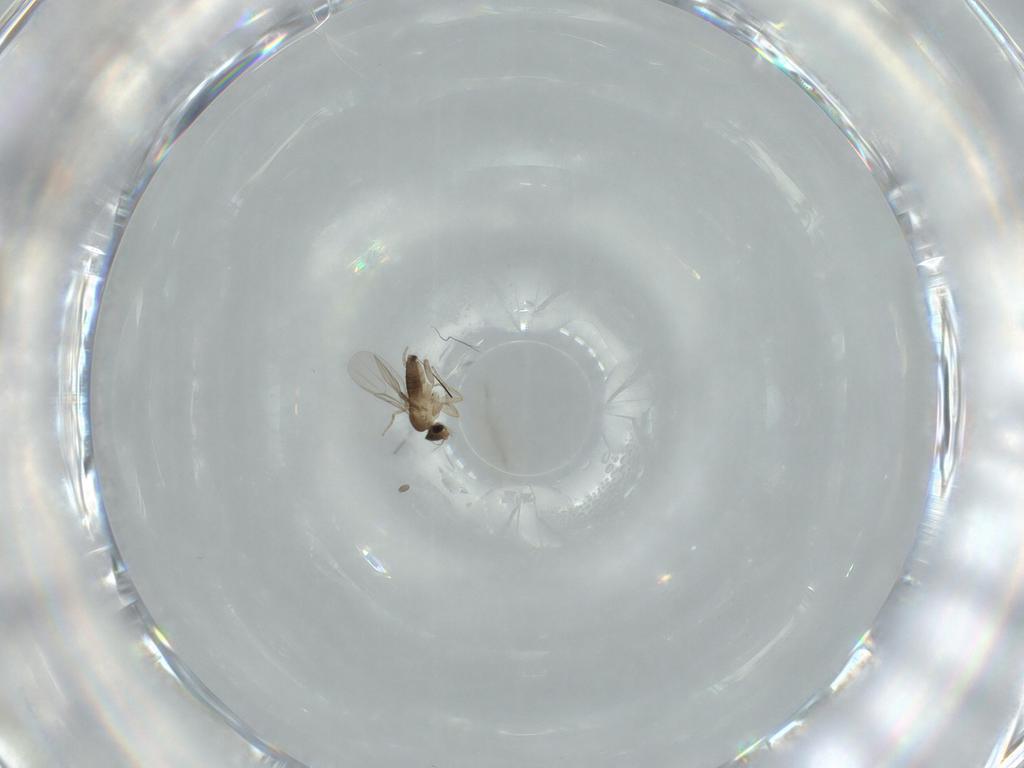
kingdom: Animalia
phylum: Arthropoda
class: Insecta
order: Diptera
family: Phoridae
